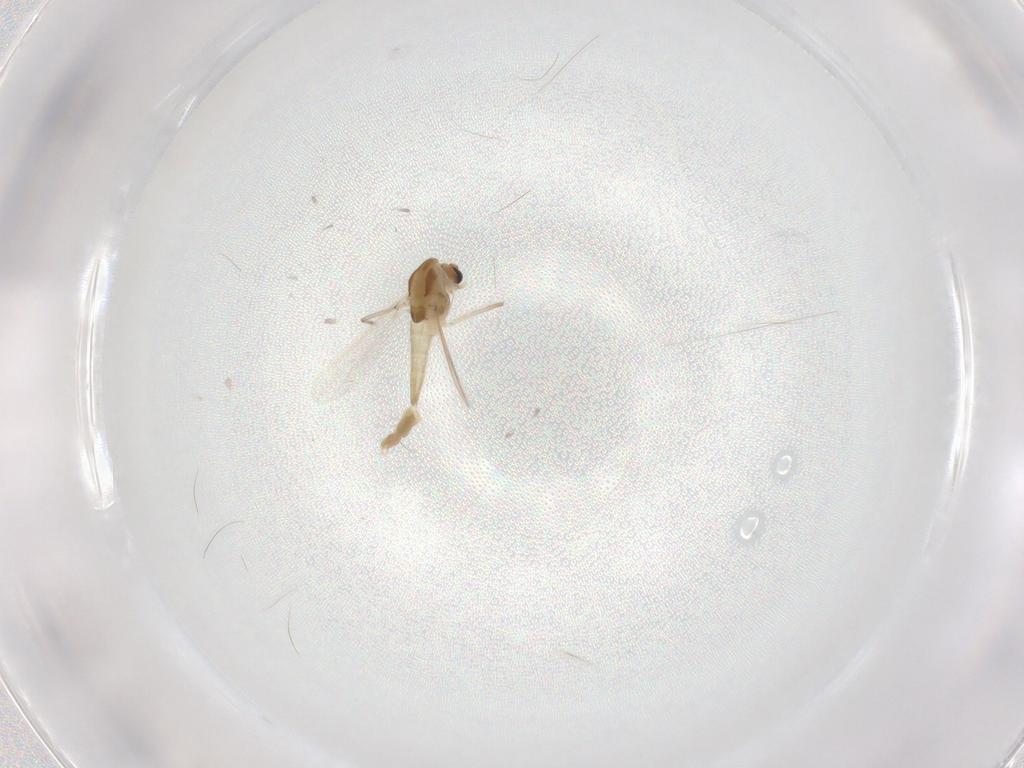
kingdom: Animalia
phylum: Arthropoda
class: Insecta
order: Diptera
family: Chironomidae
